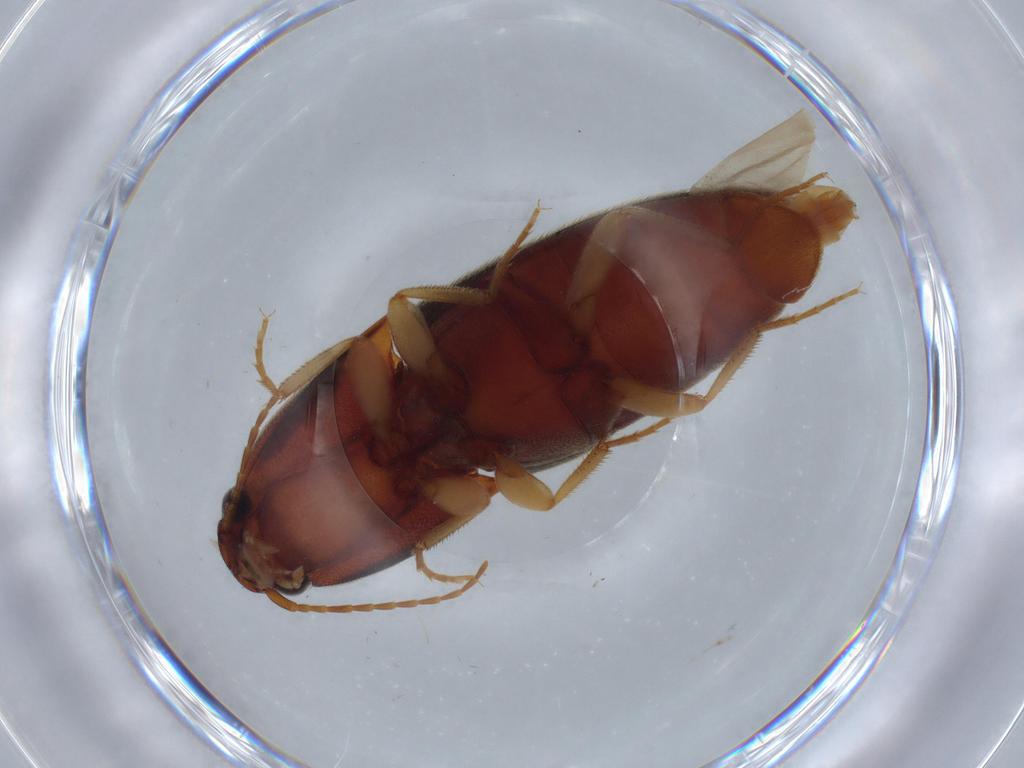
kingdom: Animalia
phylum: Arthropoda
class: Insecta
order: Coleoptera
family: Elateridae
